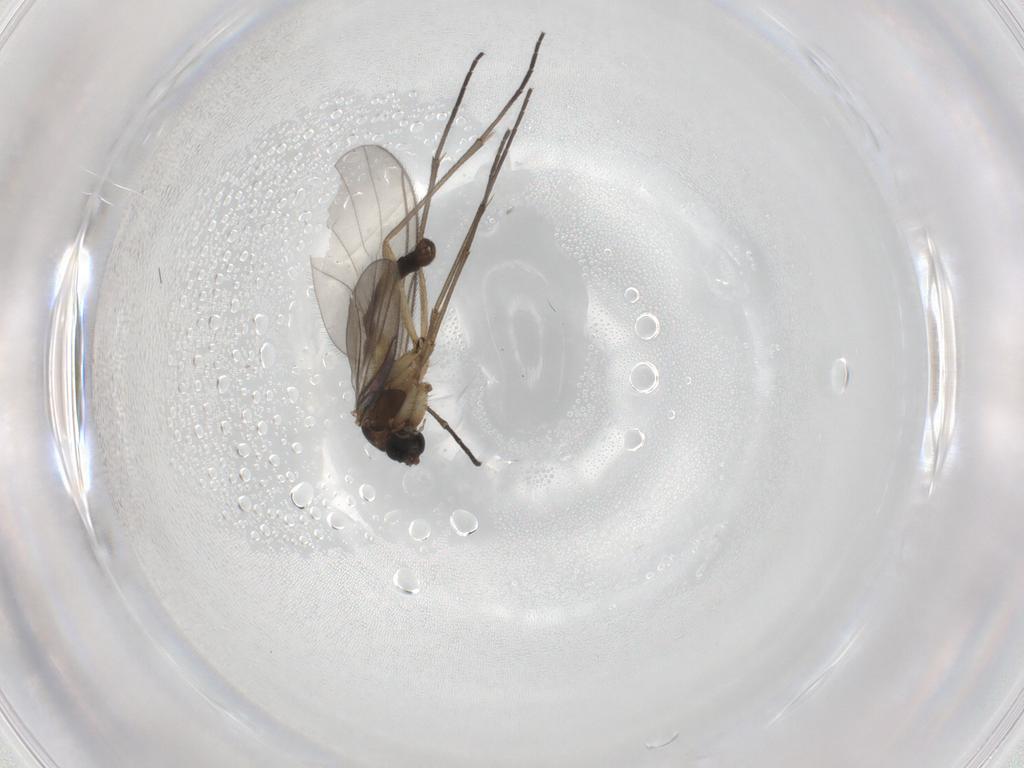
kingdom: Animalia
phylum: Arthropoda
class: Insecta
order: Diptera
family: Sciaridae
